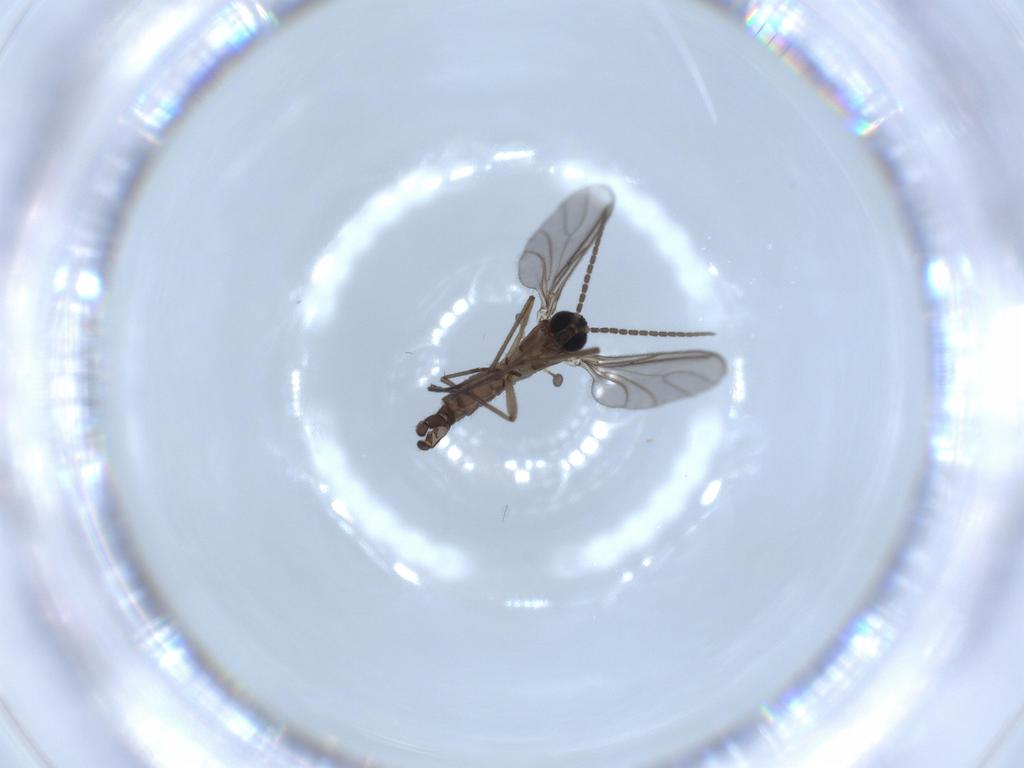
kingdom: Animalia
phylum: Arthropoda
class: Insecta
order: Diptera
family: Sciaridae
